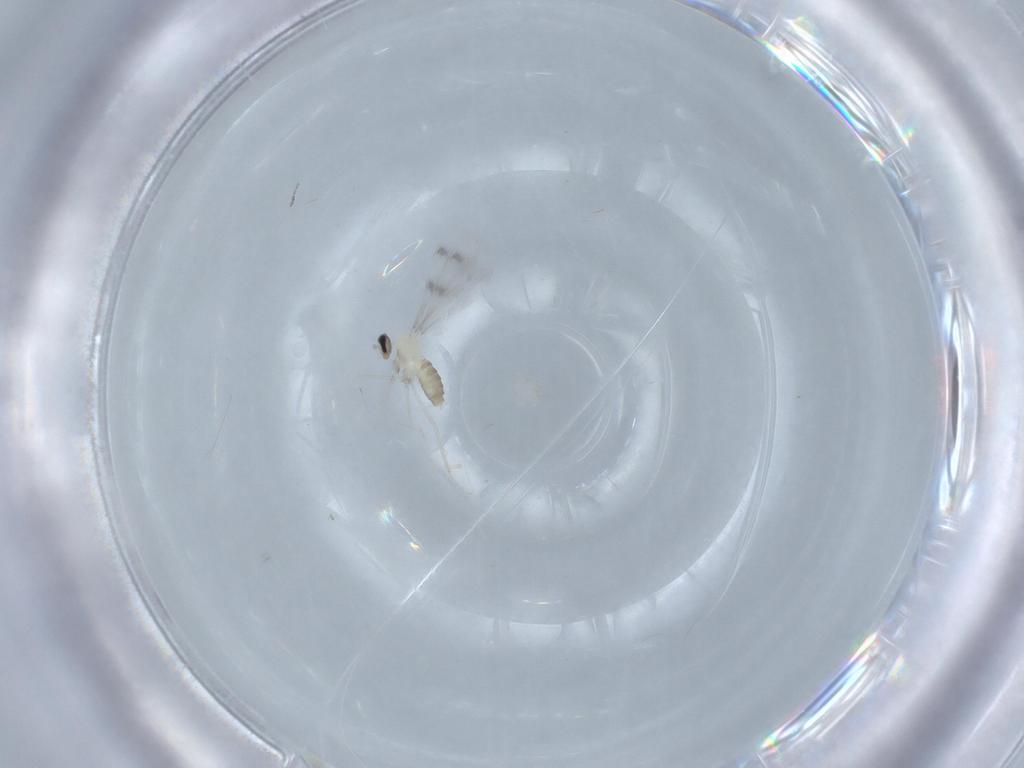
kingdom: Animalia
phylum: Arthropoda
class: Insecta
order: Diptera
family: Cecidomyiidae
